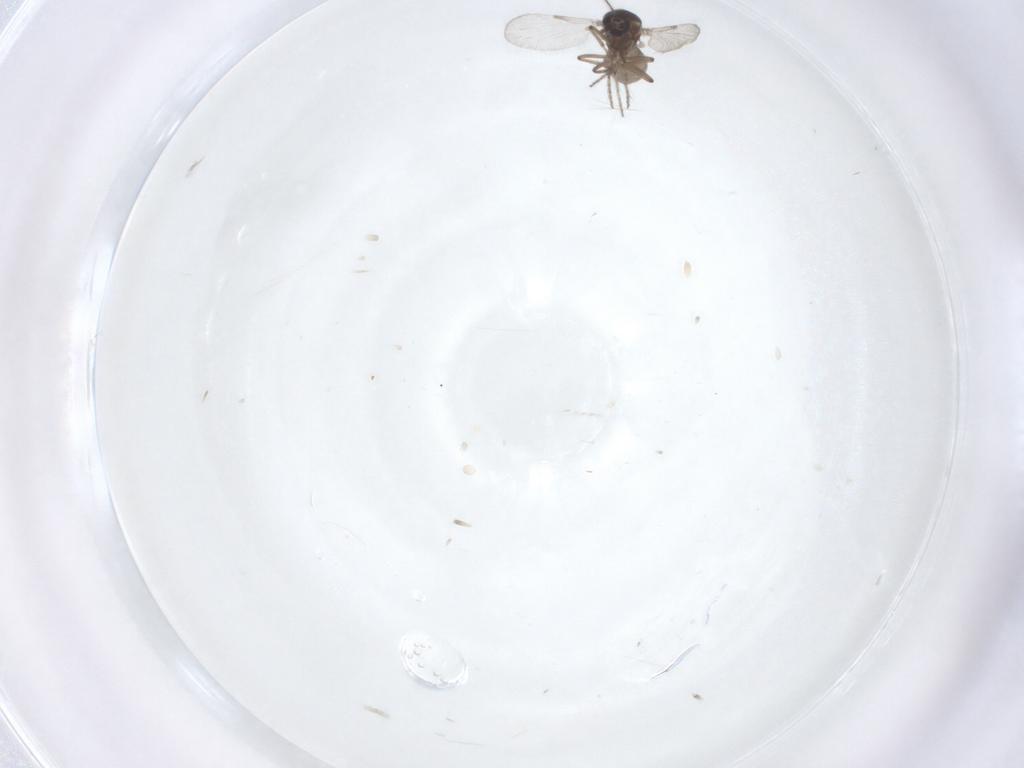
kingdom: Animalia
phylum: Arthropoda
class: Insecta
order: Diptera
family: Ceratopogonidae
